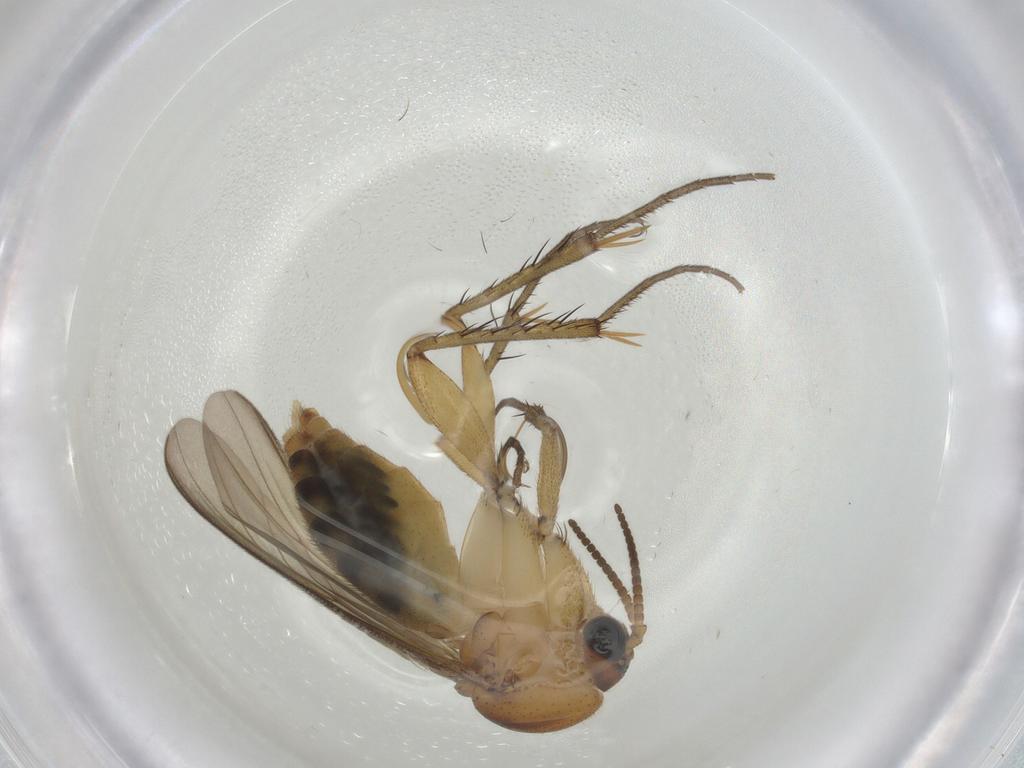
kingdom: Animalia
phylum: Arthropoda
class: Insecta
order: Diptera
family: Mycetophilidae
